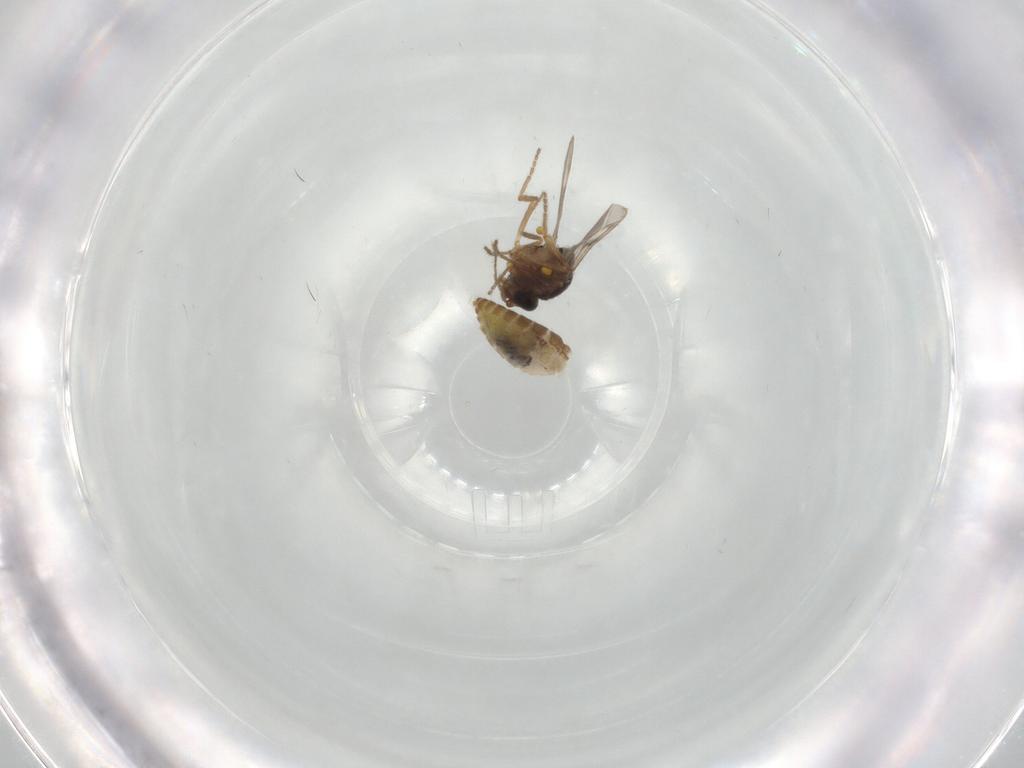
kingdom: Animalia
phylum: Arthropoda
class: Insecta
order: Diptera
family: Ceratopogonidae
